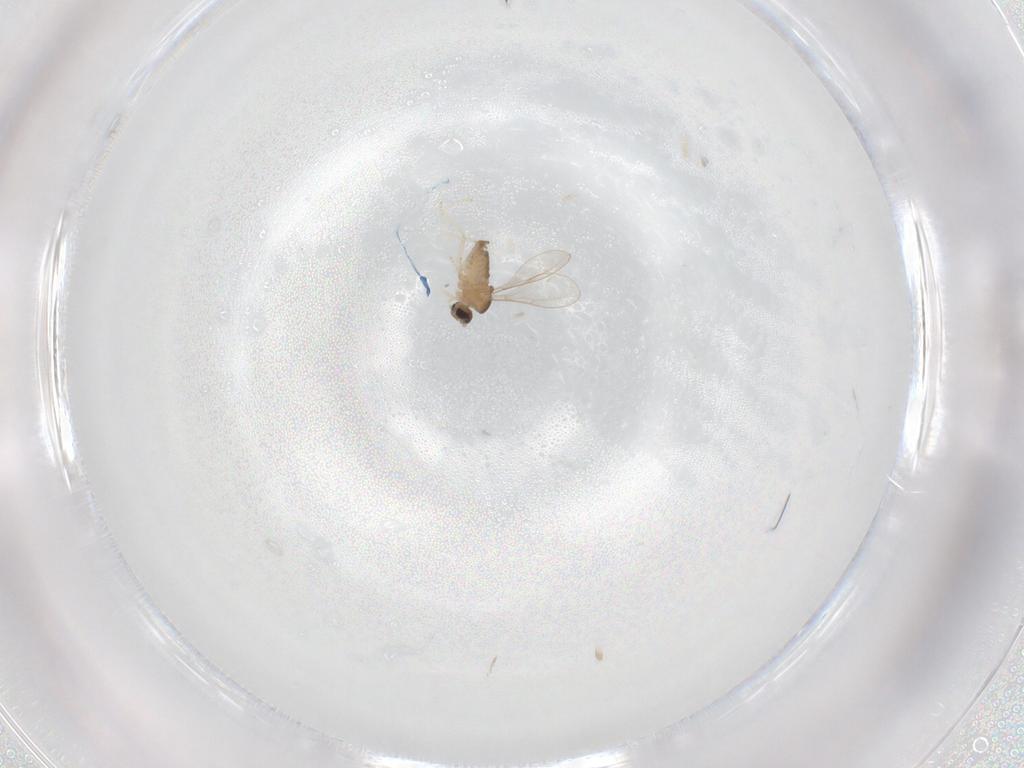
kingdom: Animalia
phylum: Arthropoda
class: Insecta
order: Diptera
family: Cecidomyiidae
